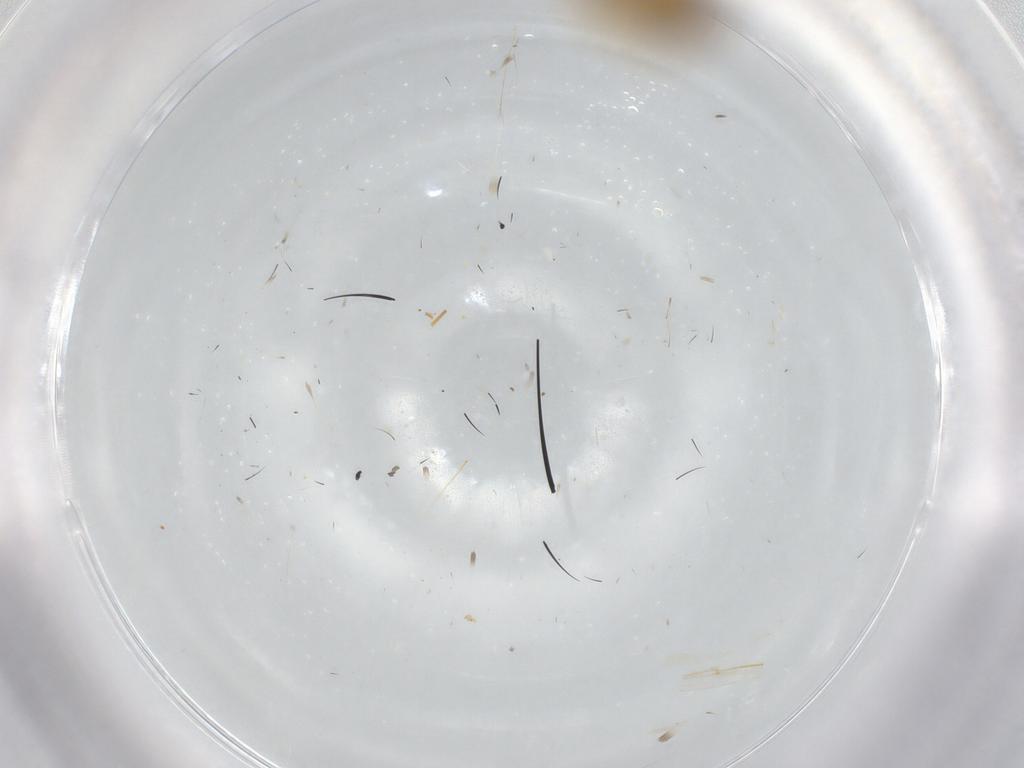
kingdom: Animalia
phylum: Arthropoda
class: Insecta
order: Hemiptera
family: Miridae
